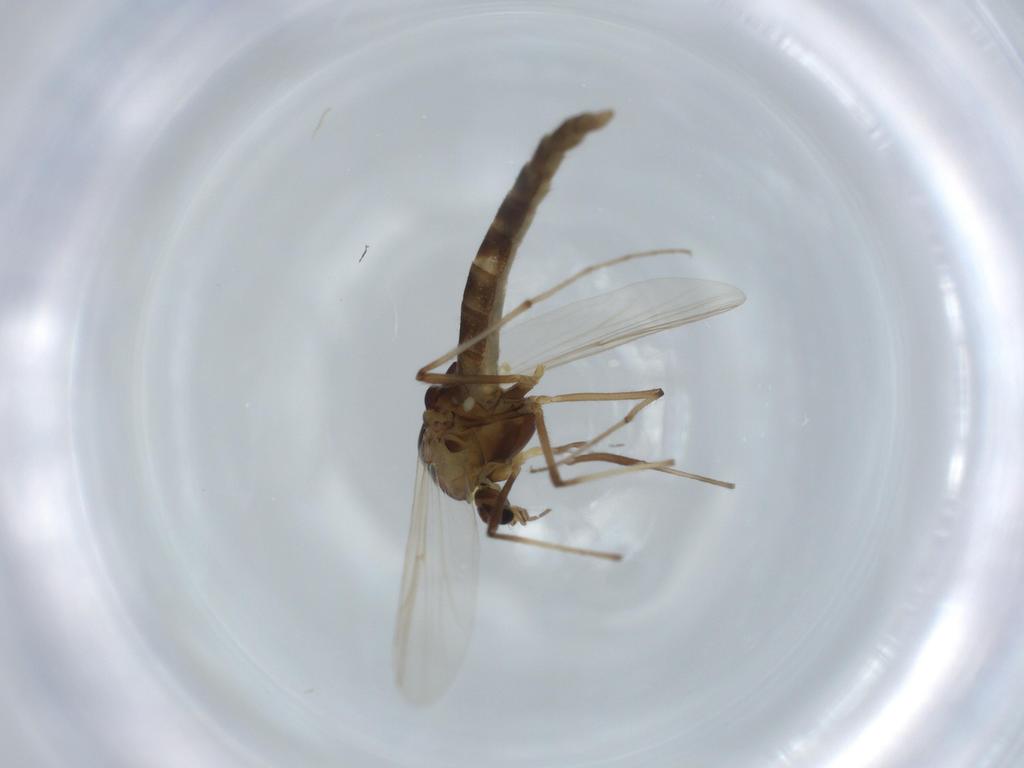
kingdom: Animalia
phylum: Arthropoda
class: Insecta
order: Diptera
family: Chironomidae
